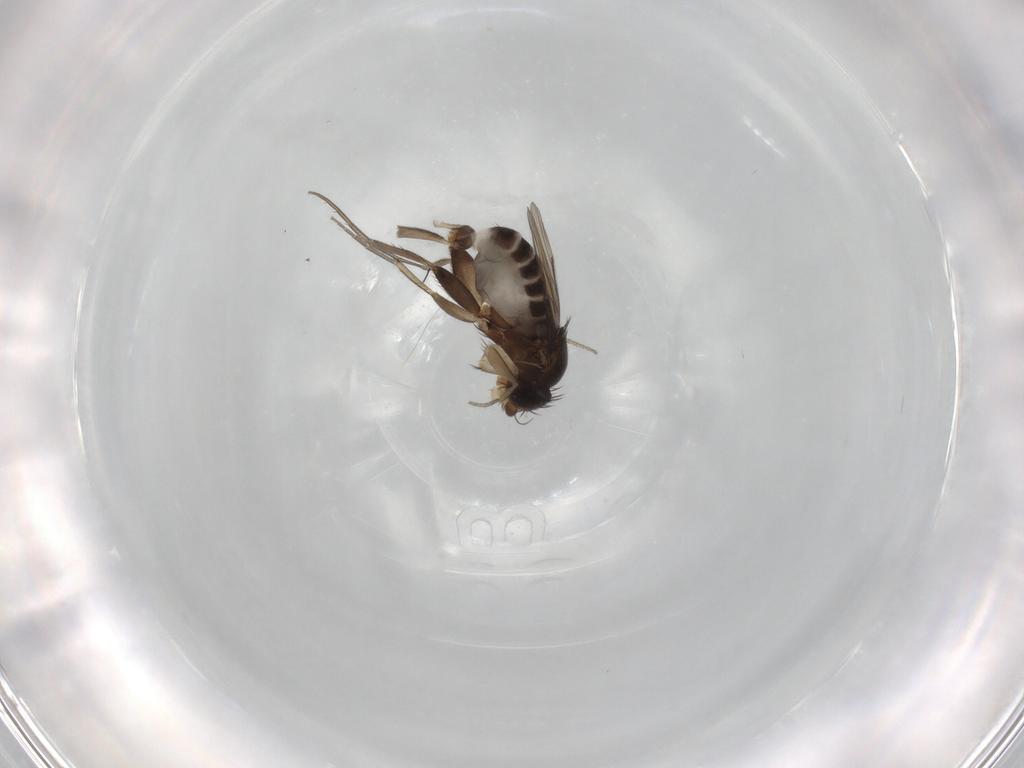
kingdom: Animalia
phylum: Arthropoda
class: Insecta
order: Diptera
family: Phoridae
